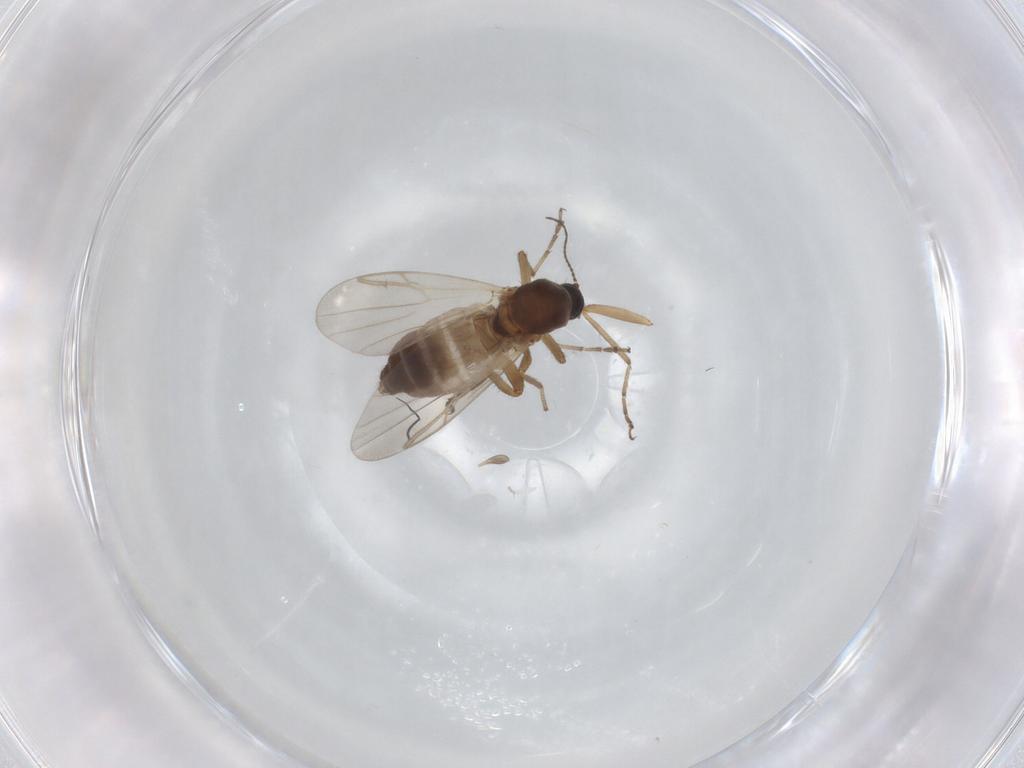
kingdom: Animalia
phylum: Arthropoda
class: Insecta
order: Diptera
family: Chironomidae
